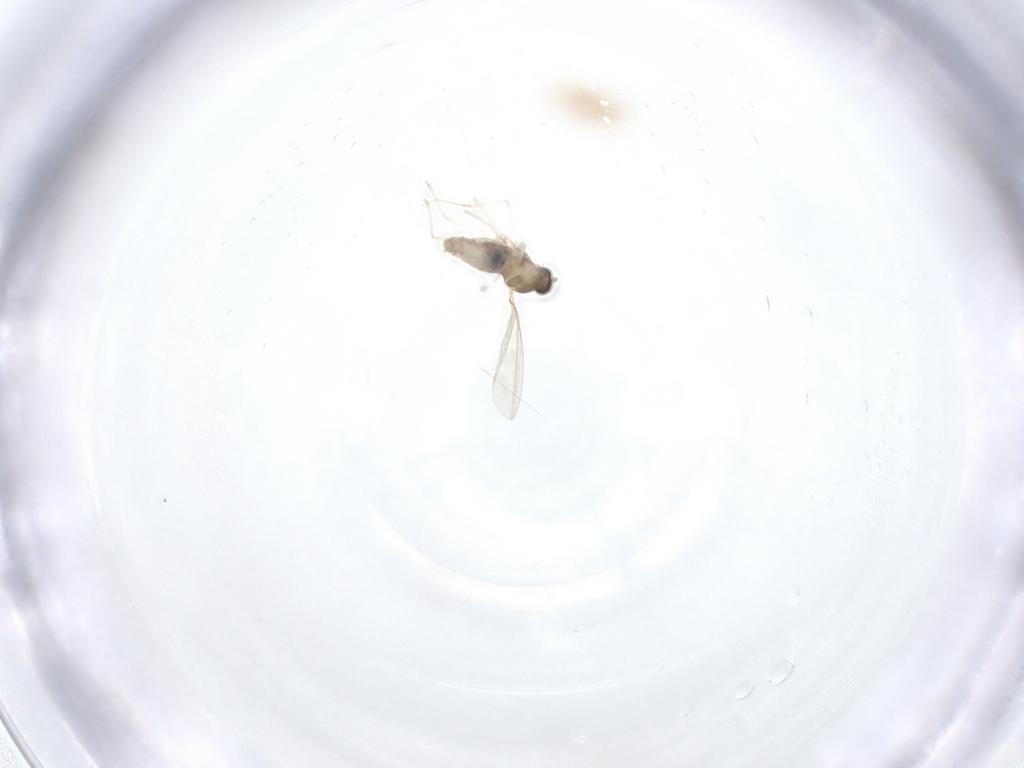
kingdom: Animalia
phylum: Arthropoda
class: Insecta
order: Diptera
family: Cecidomyiidae
